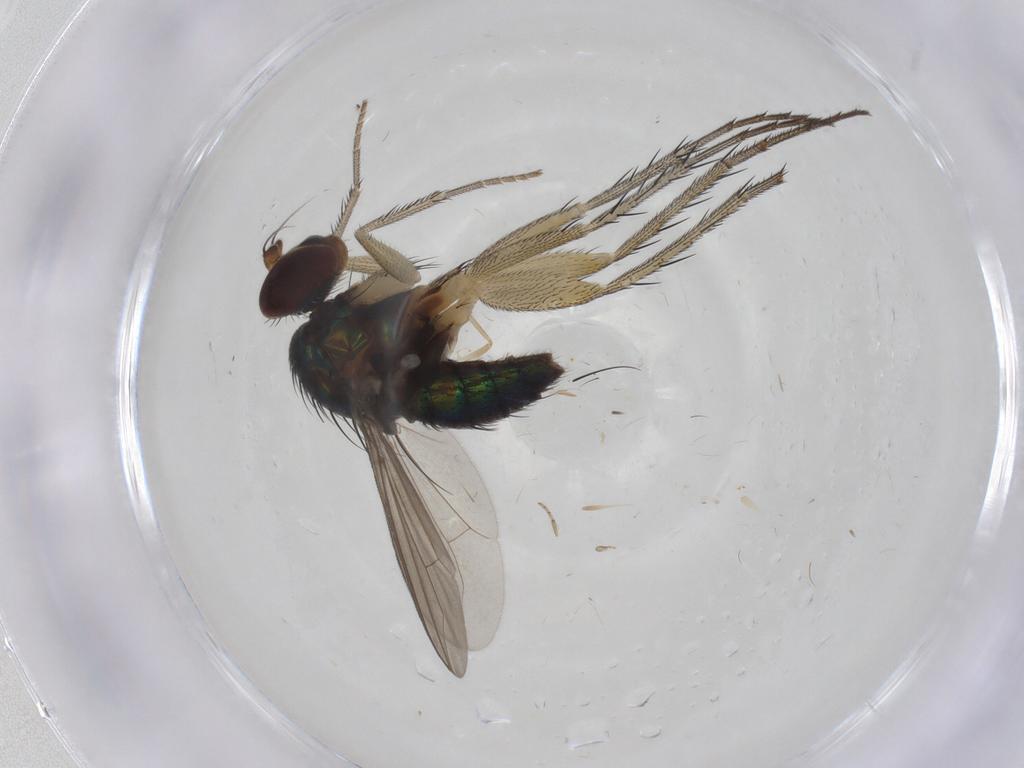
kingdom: Animalia
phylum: Arthropoda
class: Insecta
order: Diptera
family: Dolichopodidae
